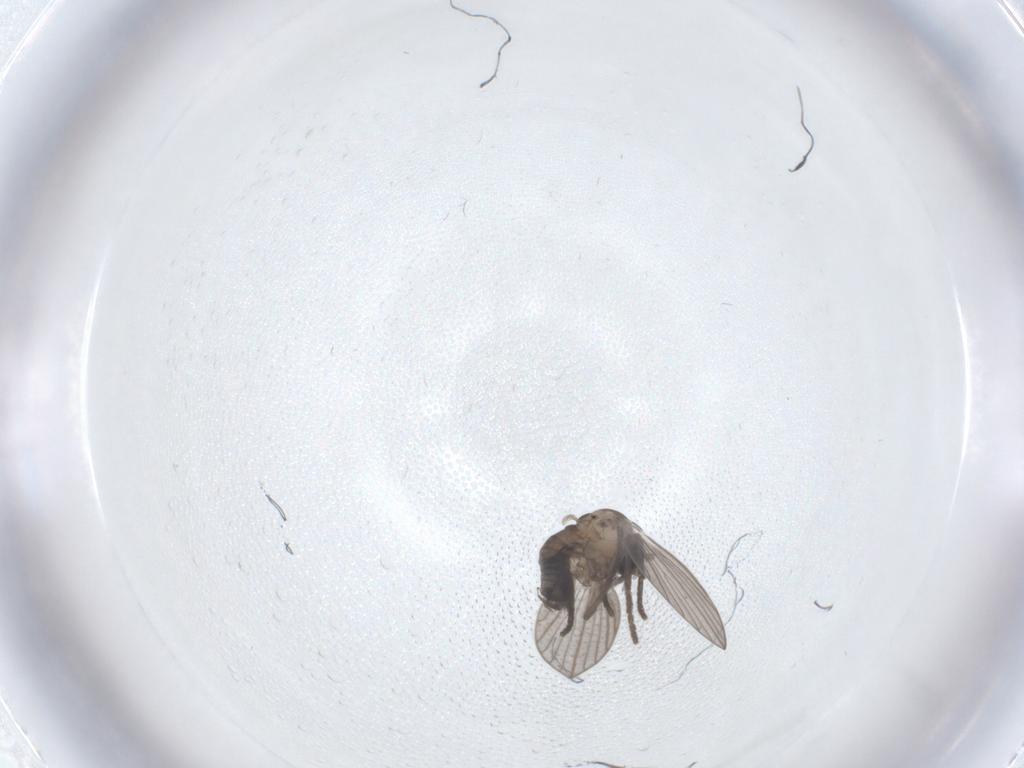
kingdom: Animalia
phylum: Arthropoda
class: Insecta
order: Diptera
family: Psychodidae
